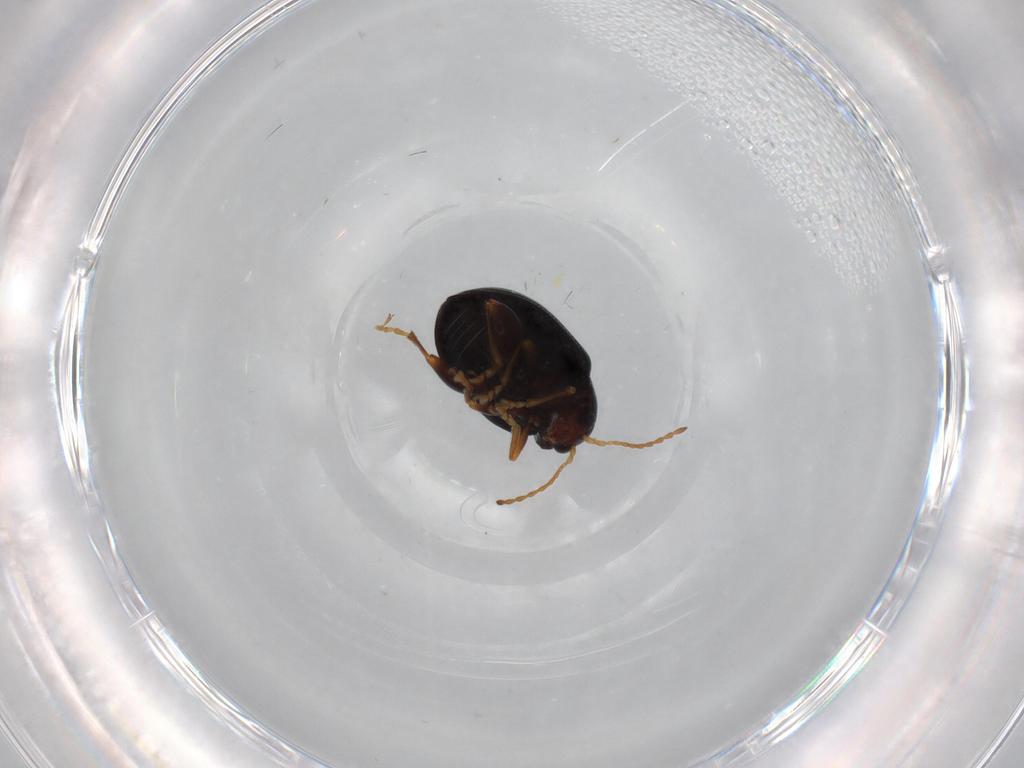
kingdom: Animalia
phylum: Arthropoda
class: Insecta
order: Coleoptera
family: Chrysomelidae
